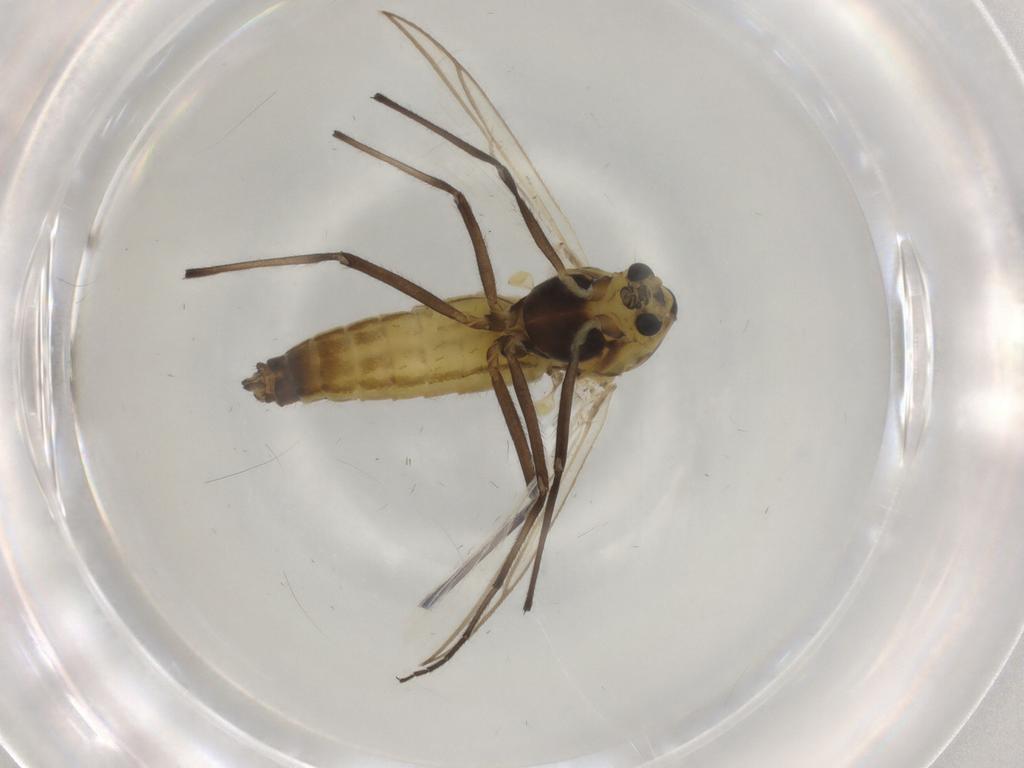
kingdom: Animalia
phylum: Arthropoda
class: Insecta
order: Diptera
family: Chironomidae
